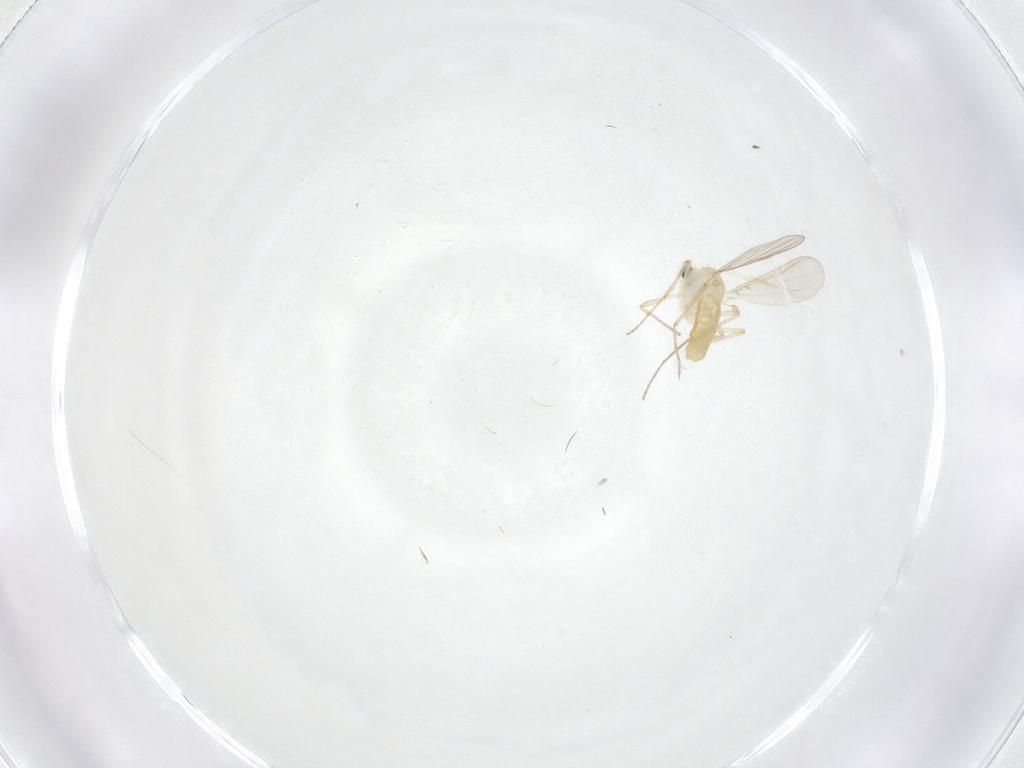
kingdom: Animalia
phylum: Arthropoda
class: Insecta
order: Diptera
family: Chironomidae
